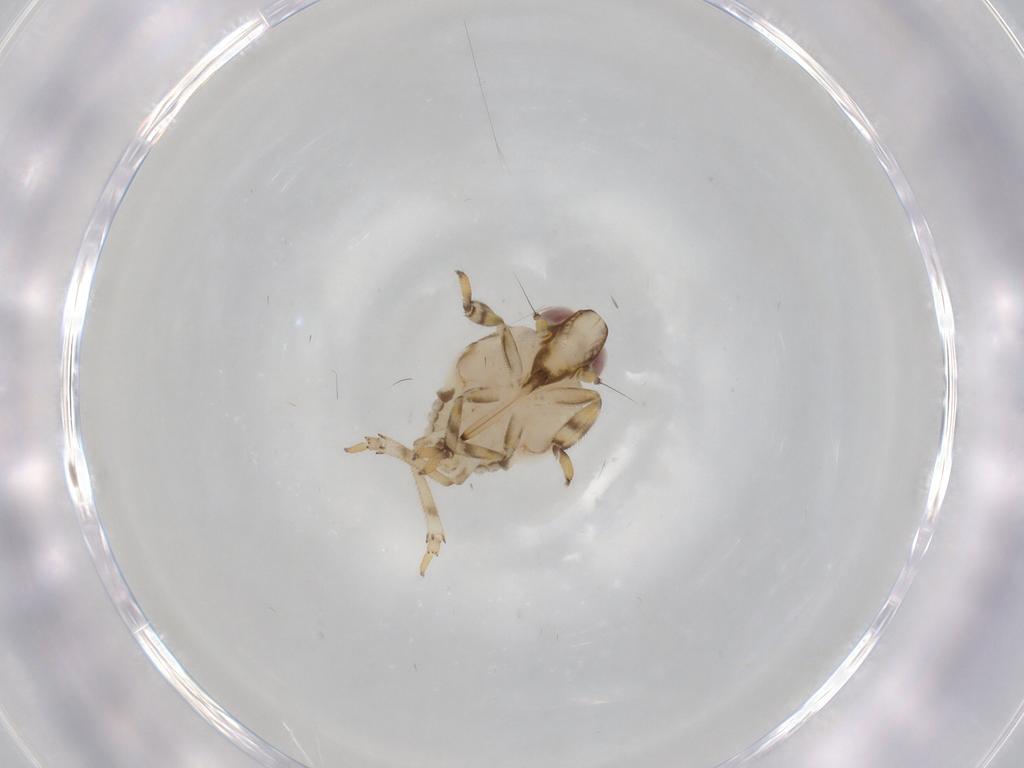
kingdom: Animalia
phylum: Arthropoda
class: Insecta
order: Hemiptera
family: Issidae
